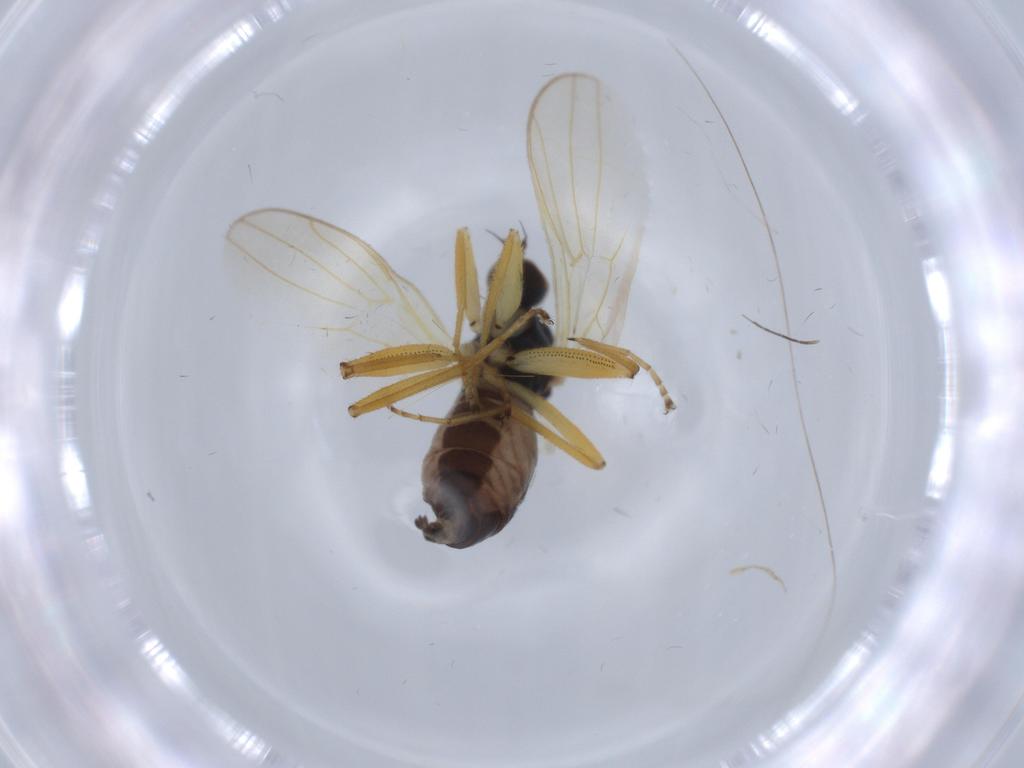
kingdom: Animalia
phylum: Arthropoda
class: Insecta
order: Diptera
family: Hybotidae
